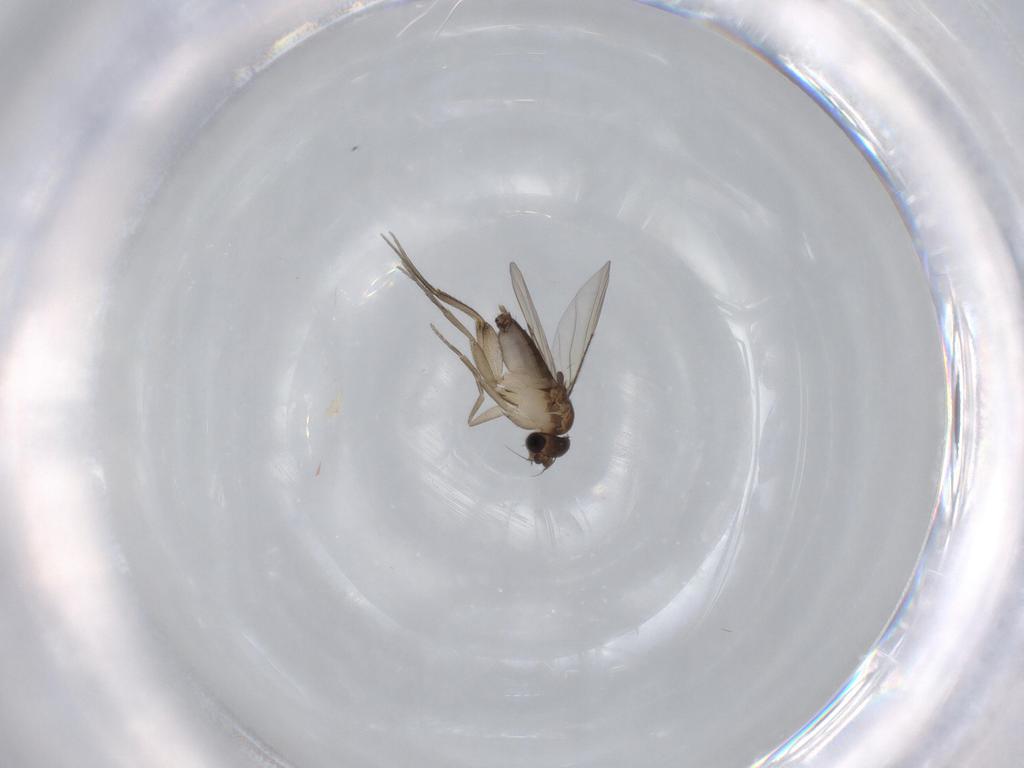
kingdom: Animalia
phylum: Arthropoda
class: Insecta
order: Diptera
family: Phoridae
